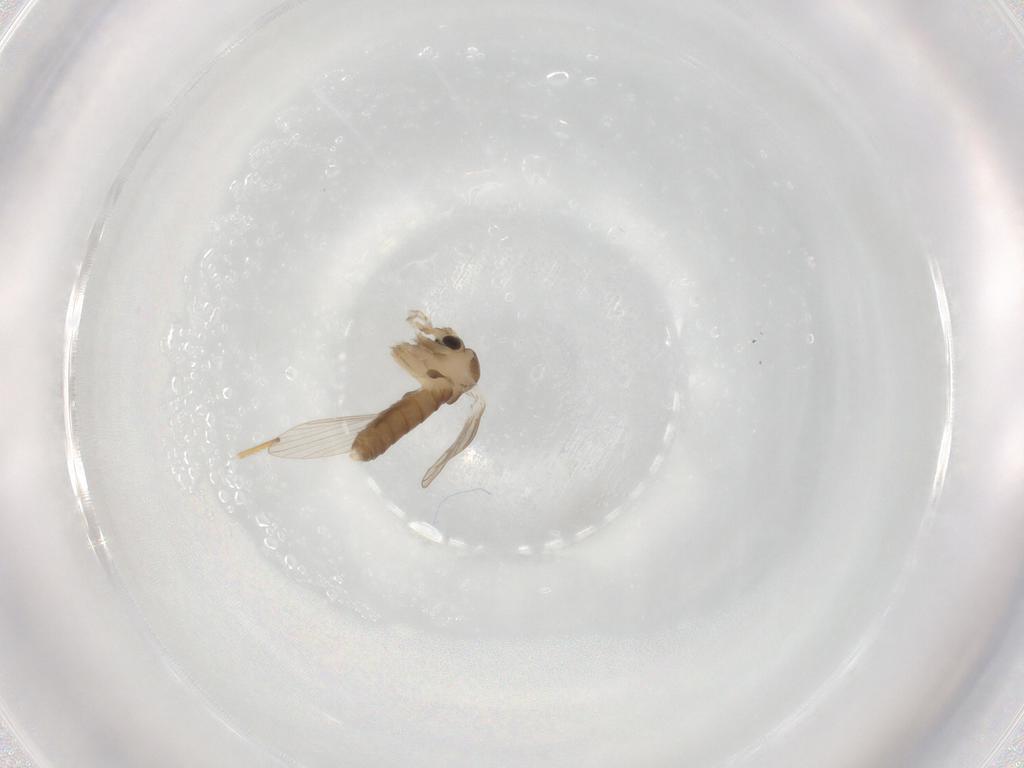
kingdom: Animalia
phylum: Arthropoda
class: Insecta
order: Diptera
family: Psychodidae
